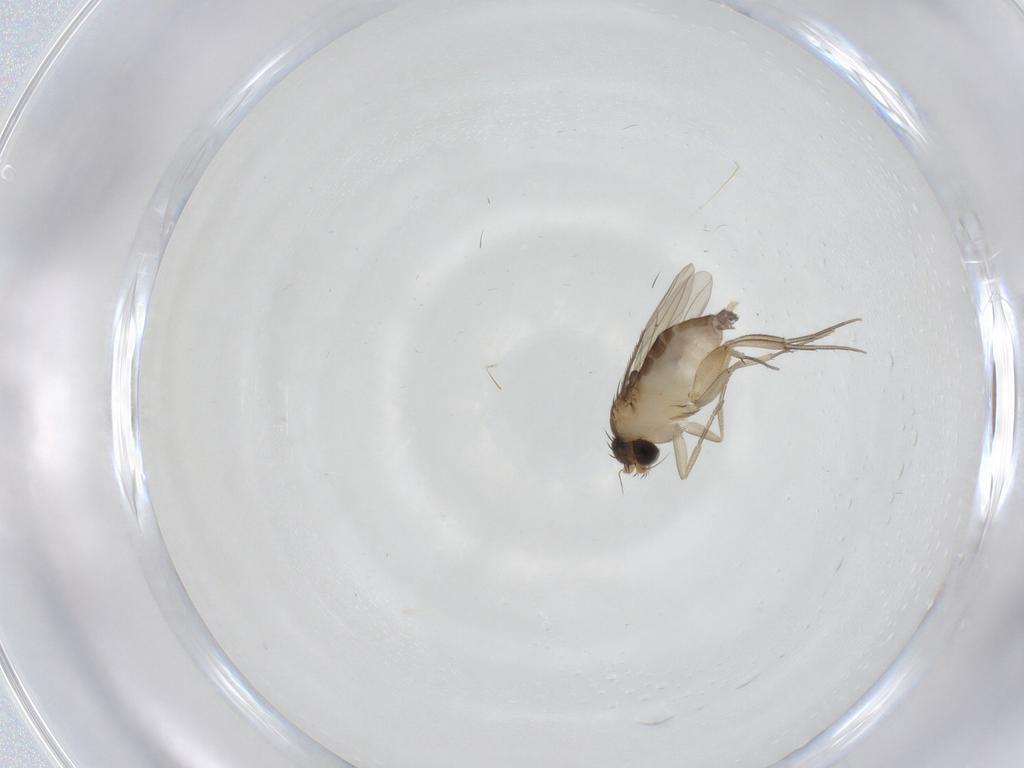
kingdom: Animalia
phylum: Arthropoda
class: Insecta
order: Diptera
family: Phoridae
